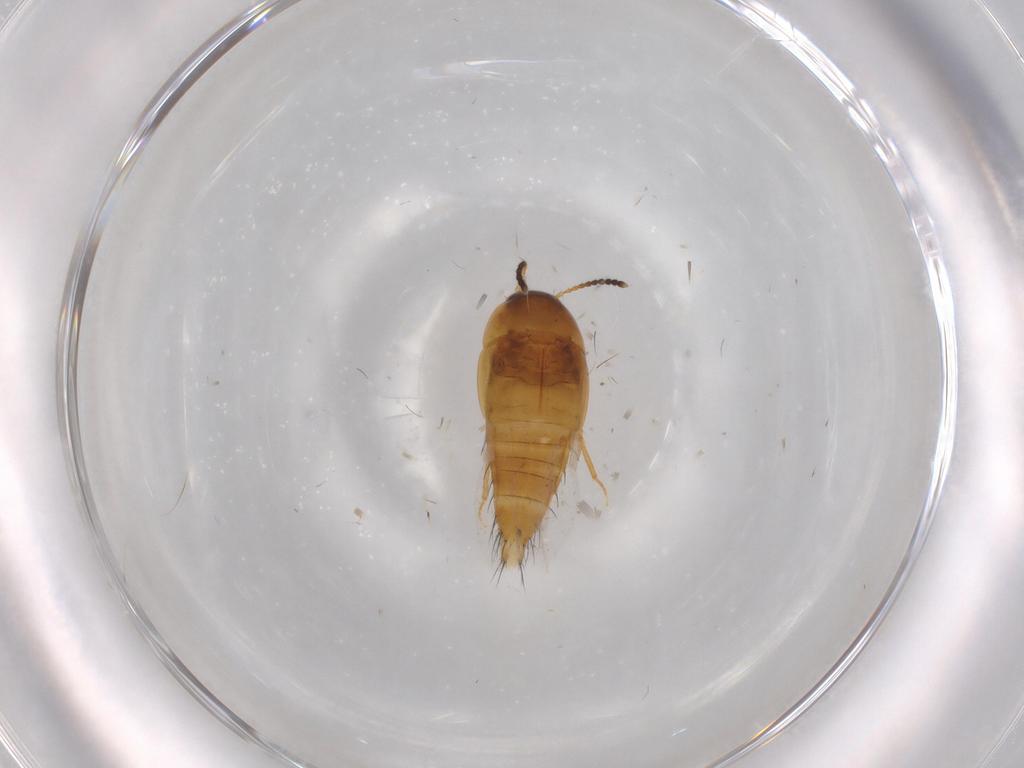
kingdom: Animalia
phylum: Arthropoda
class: Insecta
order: Coleoptera
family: Staphylinidae
